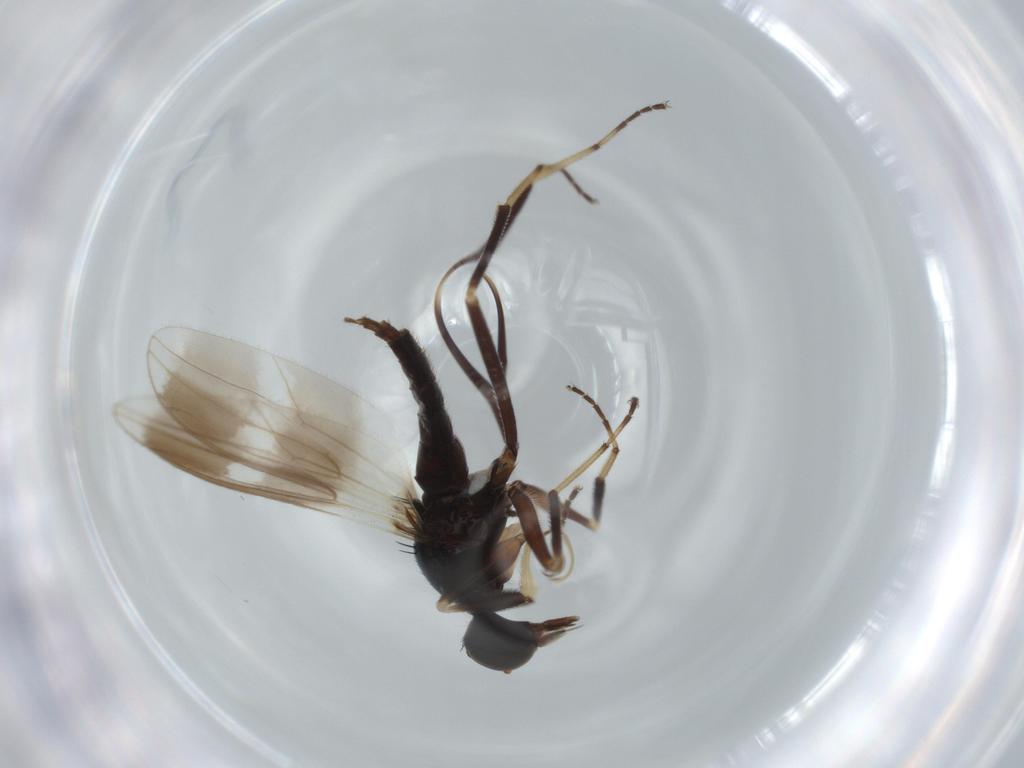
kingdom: Animalia
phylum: Arthropoda
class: Insecta
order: Diptera
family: Hybotidae
